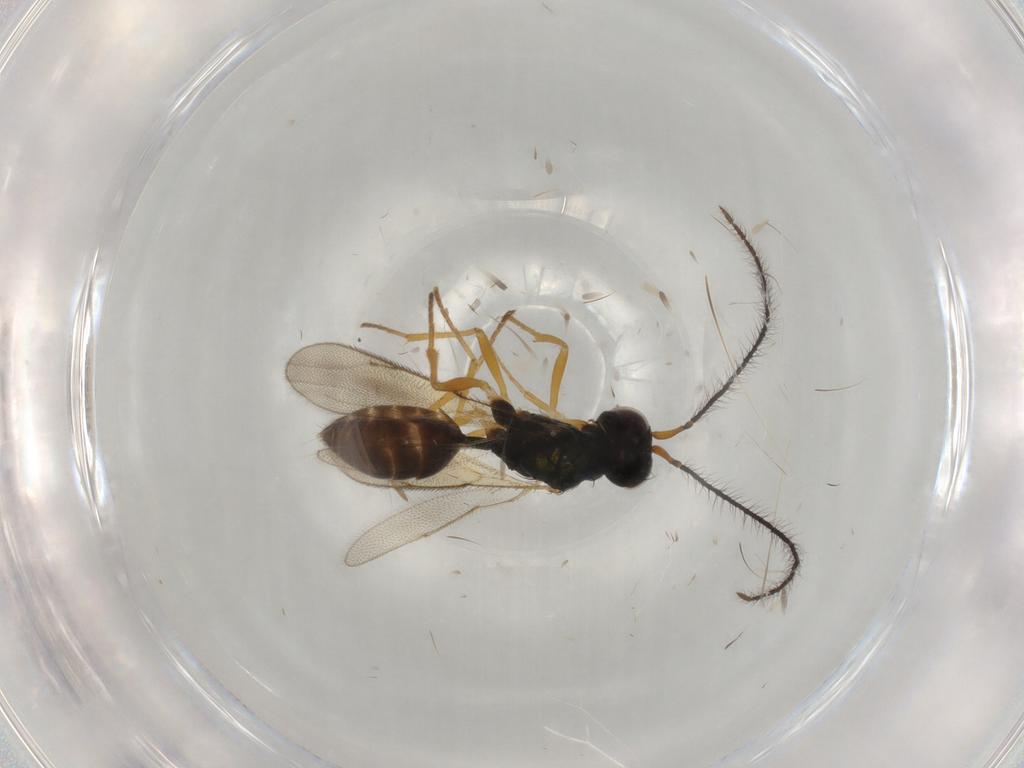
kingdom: Animalia
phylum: Arthropoda
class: Insecta
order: Hymenoptera
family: Diparidae
